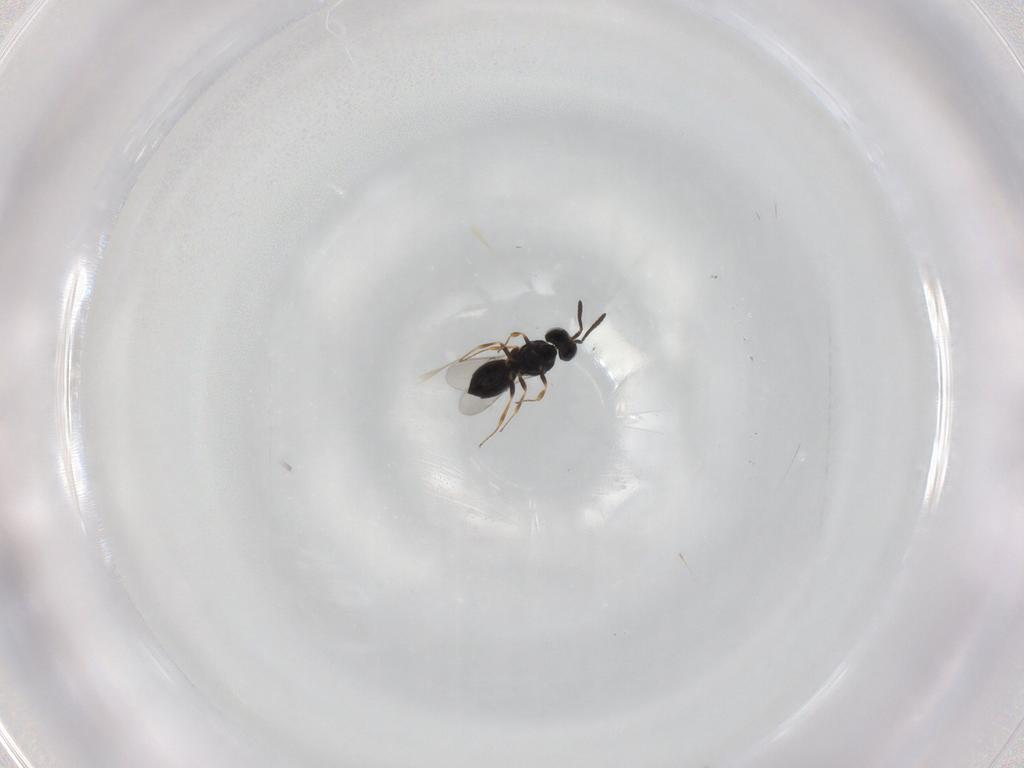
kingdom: Animalia
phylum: Arthropoda
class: Insecta
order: Hymenoptera
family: Scelionidae
